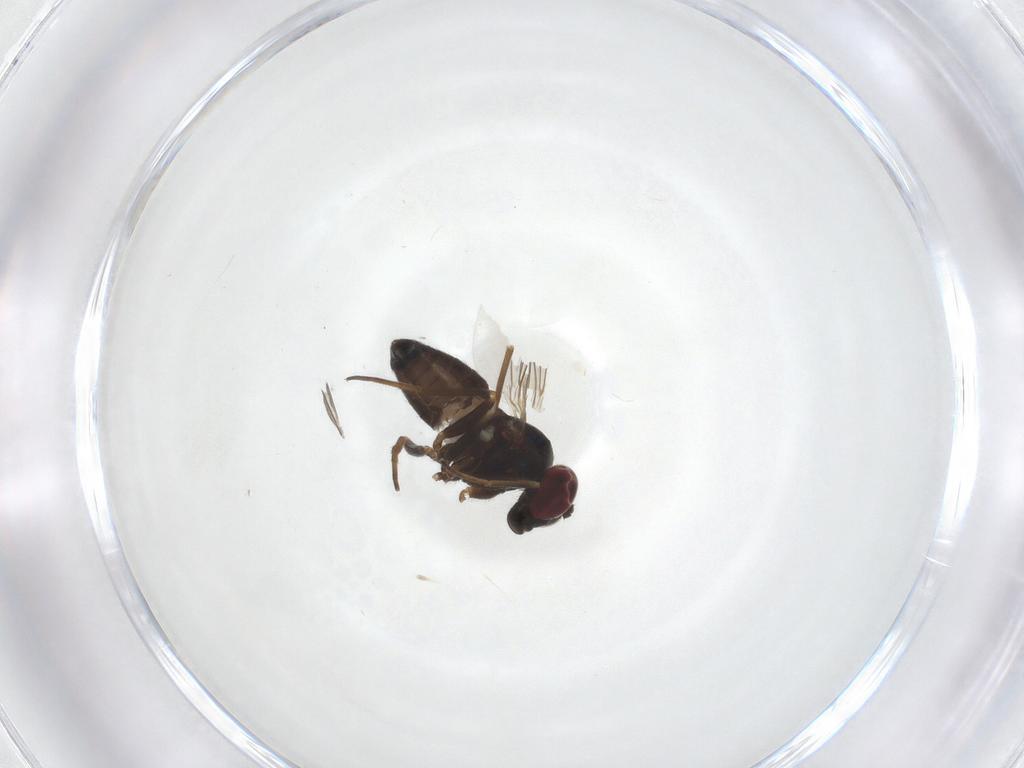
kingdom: Animalia
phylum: Arthropoda
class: Insecta
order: Diptera
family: Dolichopodidae
